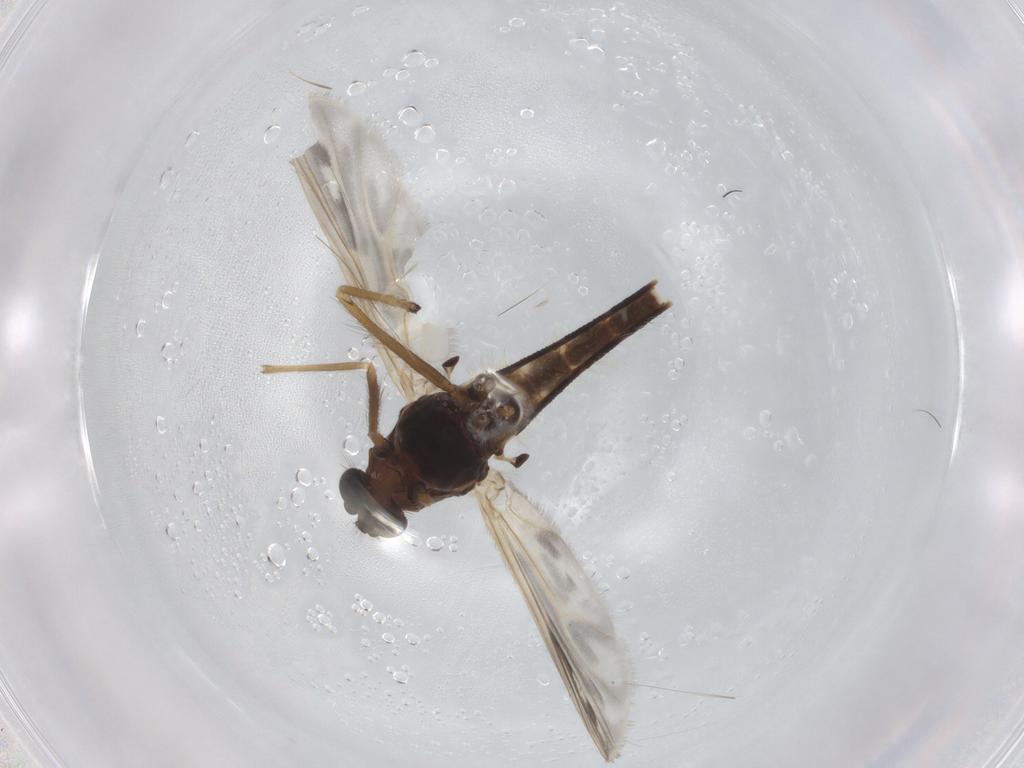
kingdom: Animalia
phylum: Arthropoda
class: Insecta
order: Diptera
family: Chironomidae
